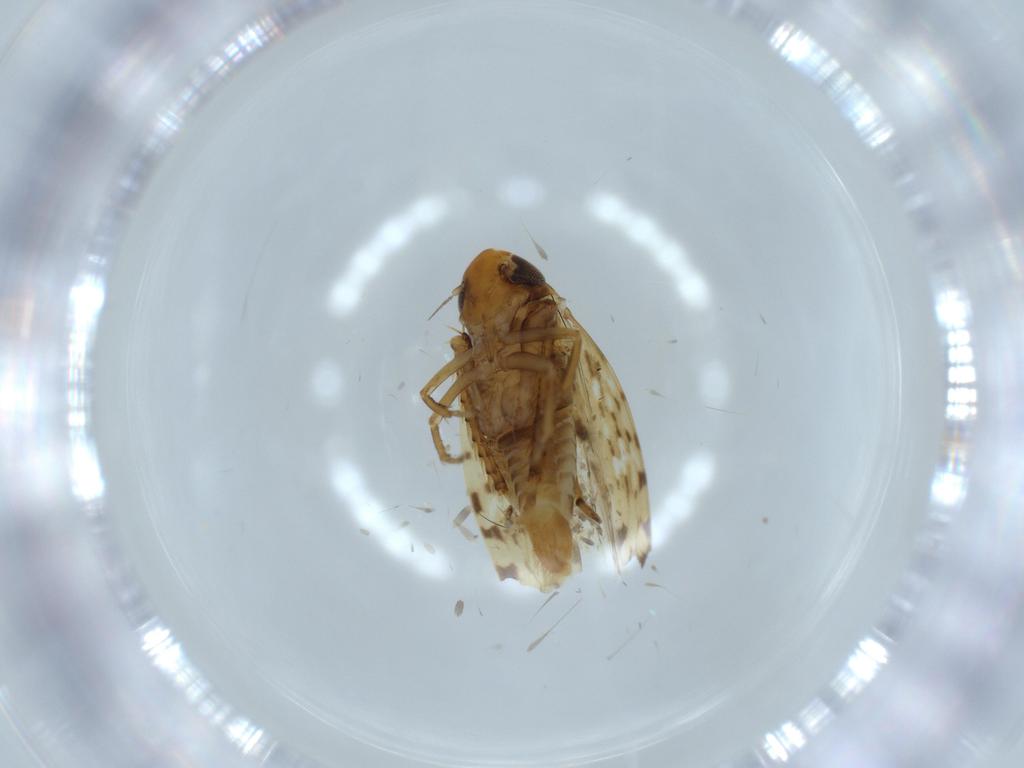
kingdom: Animalia
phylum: Arthropoda
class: Insecta
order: Hemiptera
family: Cicadellidae
